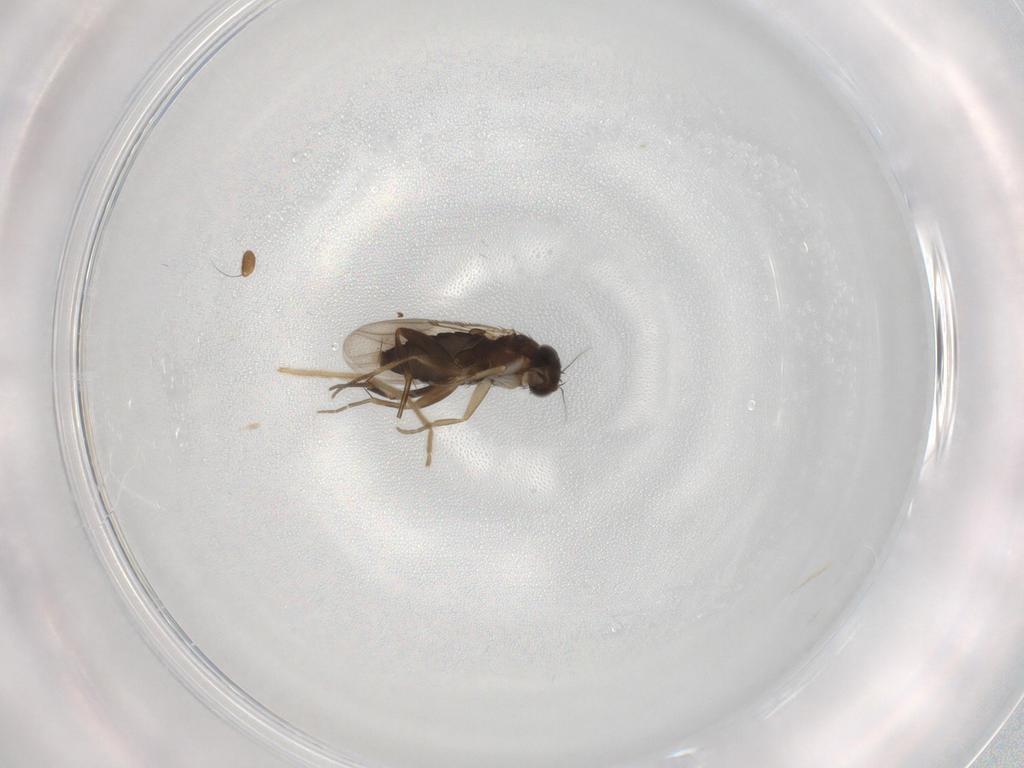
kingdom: Animalia
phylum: Arthropoda
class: Insecta
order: Diptera
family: Phoridae
